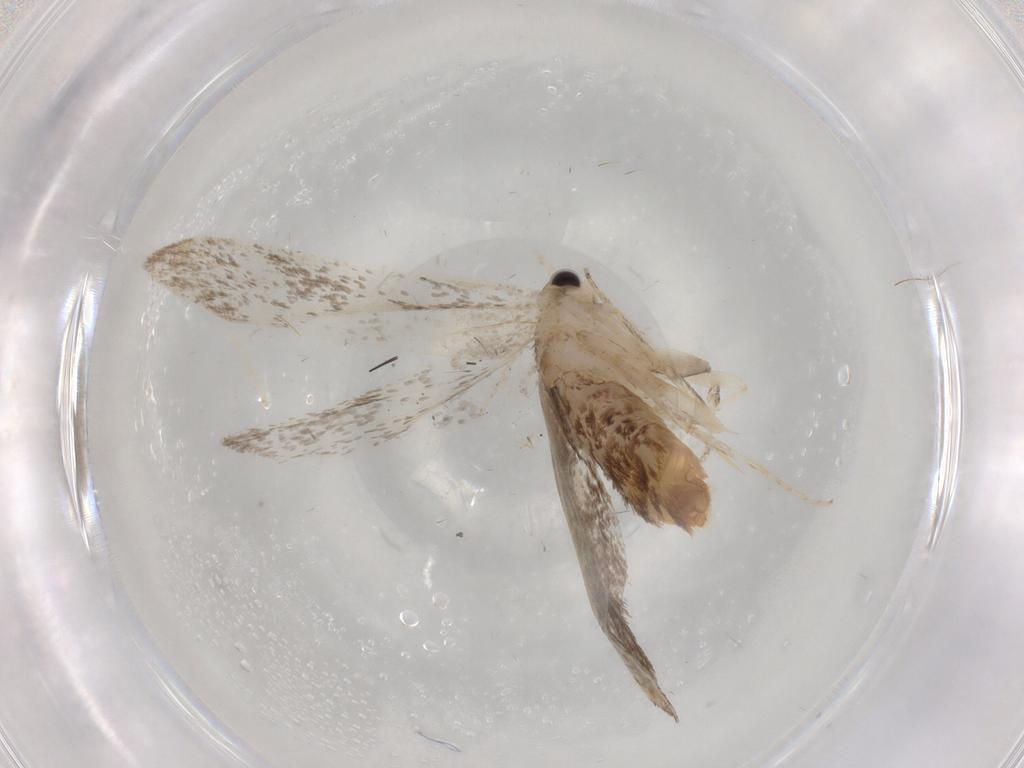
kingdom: Animalia
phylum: Arthropoda
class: Insecta
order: Lepidoptera
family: Tineidae
